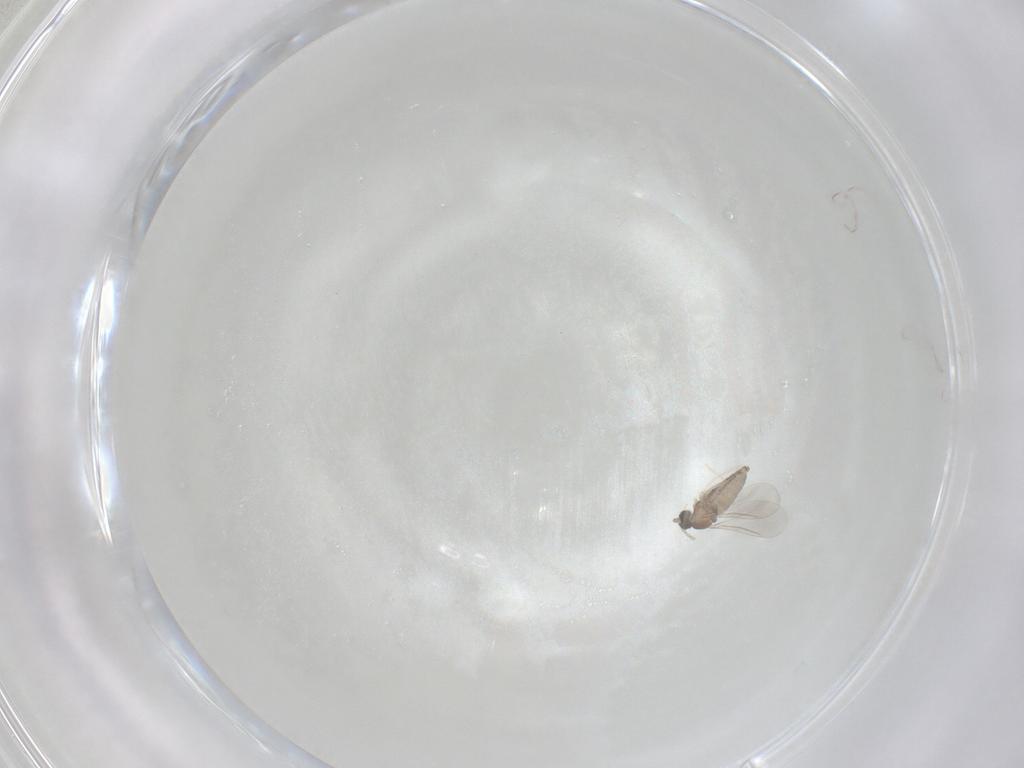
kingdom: Animalia
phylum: Arthropoda
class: Insecta
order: Diptera
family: Cecidomyiidae
